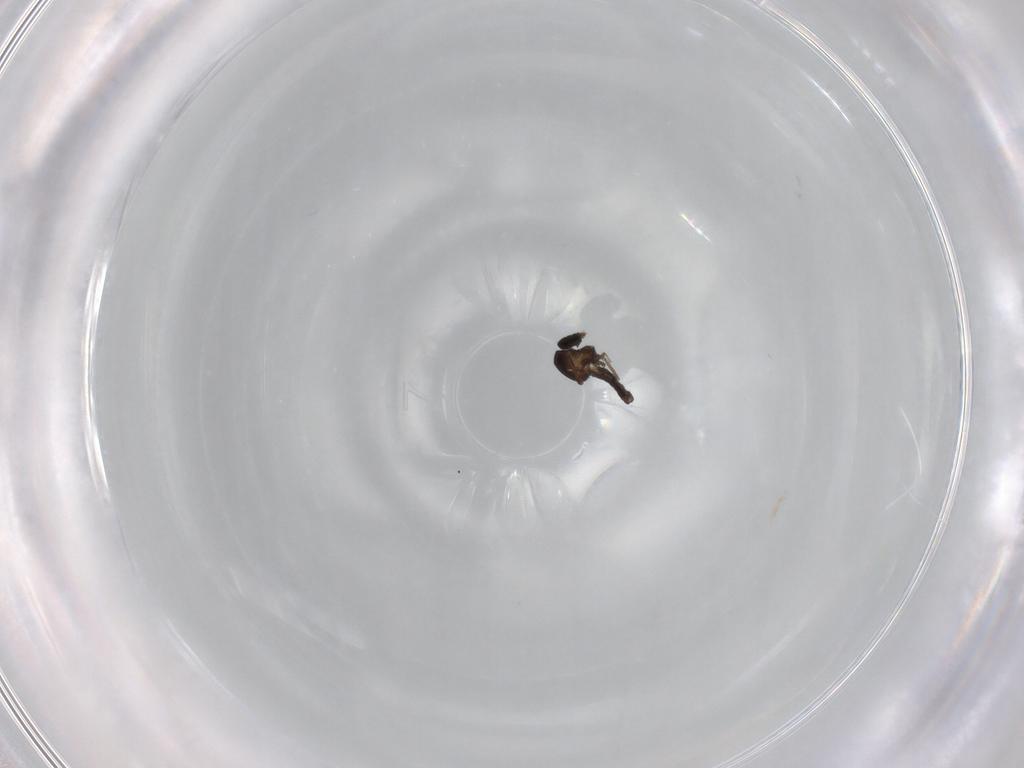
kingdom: Animalia
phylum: Arthropoda
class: Insecta
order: Diptera
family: Ceratopogonidae
